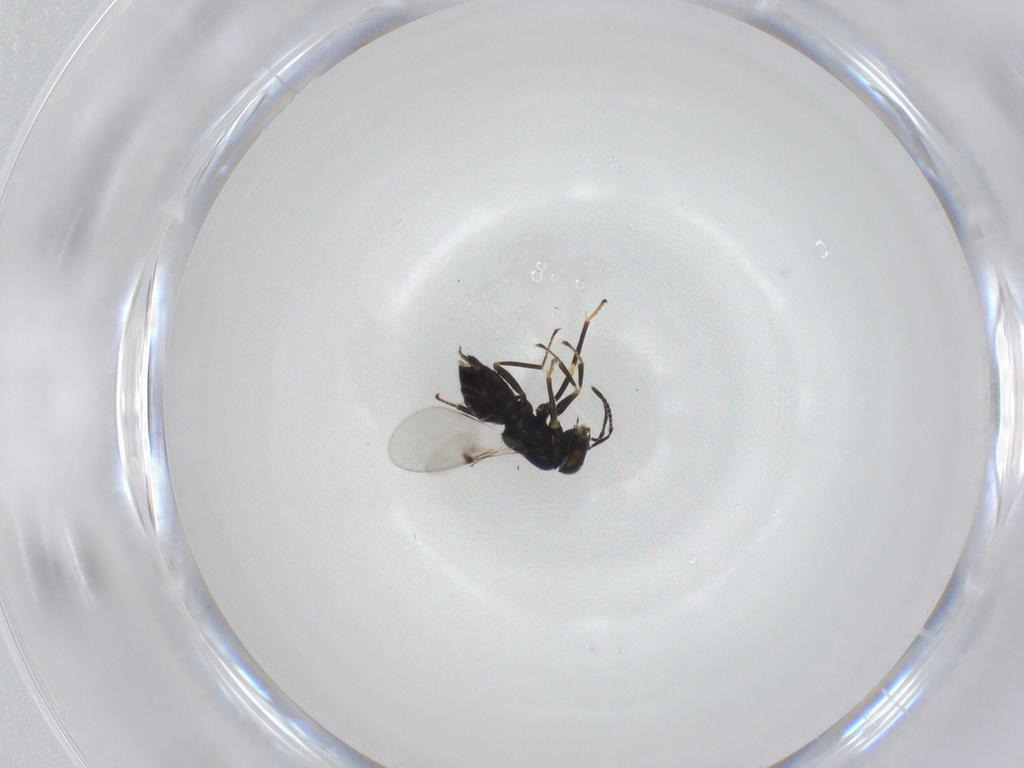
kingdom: Animalia
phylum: Arthropoda
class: Insecta
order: Hymenoptera
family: Encyrtidae
